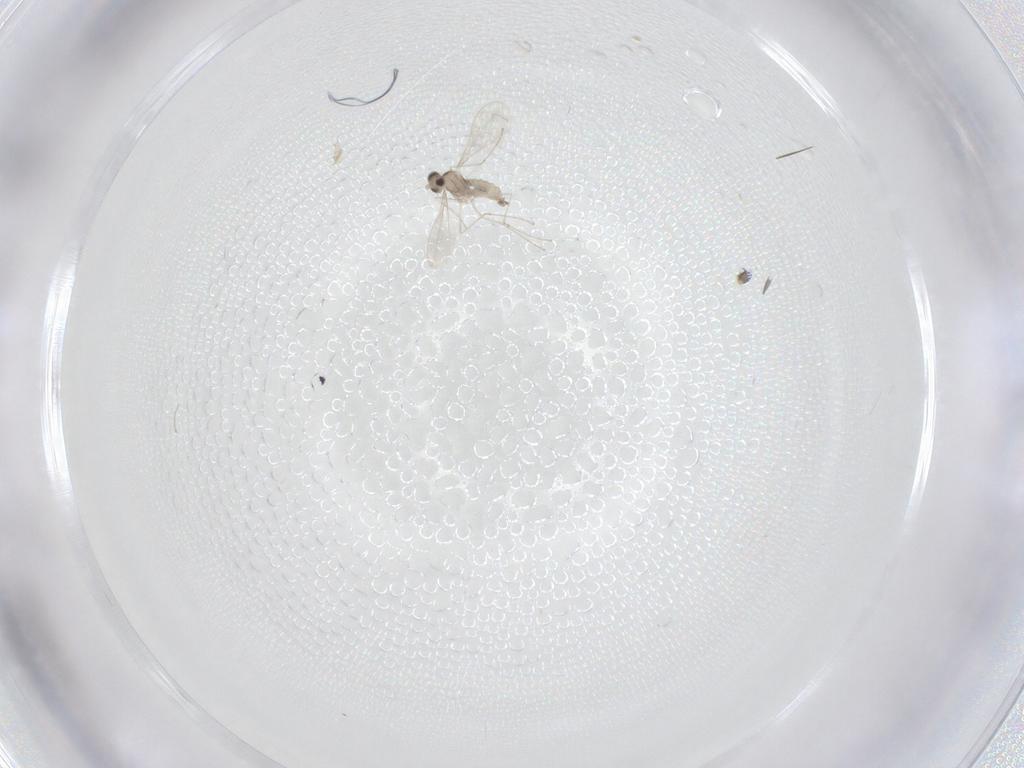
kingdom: Animalia
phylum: Arthropoda
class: Insecta
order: Diptera
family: Cecidomyiidae
